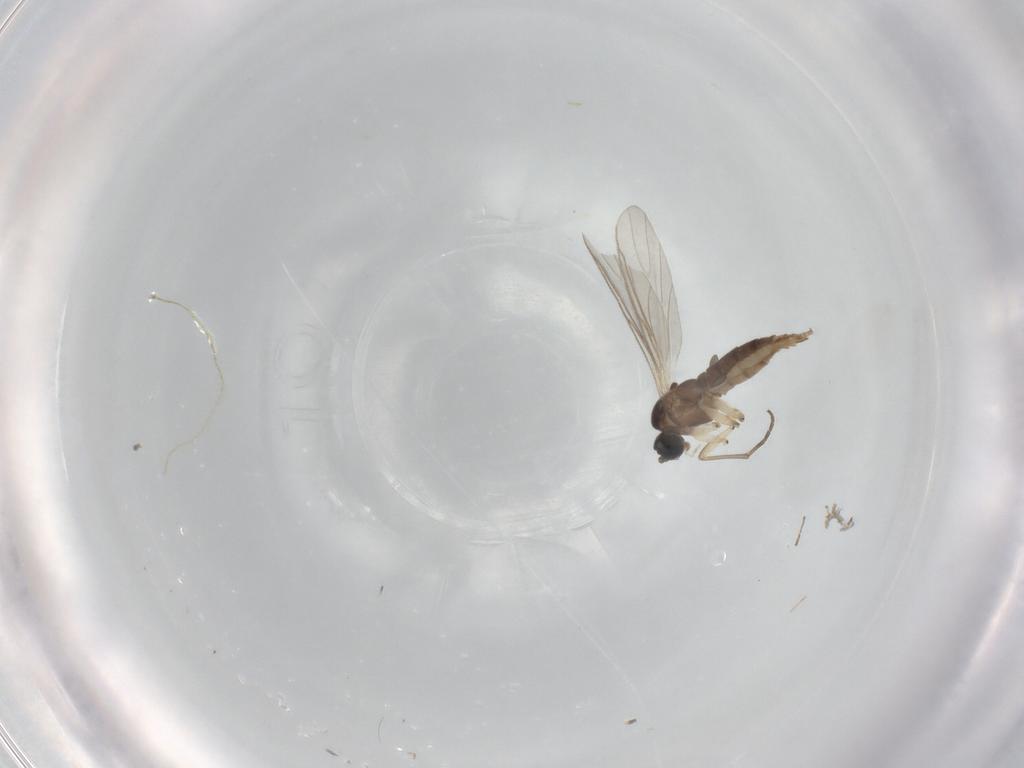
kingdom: Animalia
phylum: Arthropoda
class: Insecta
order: Diptera
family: Sciaridae
